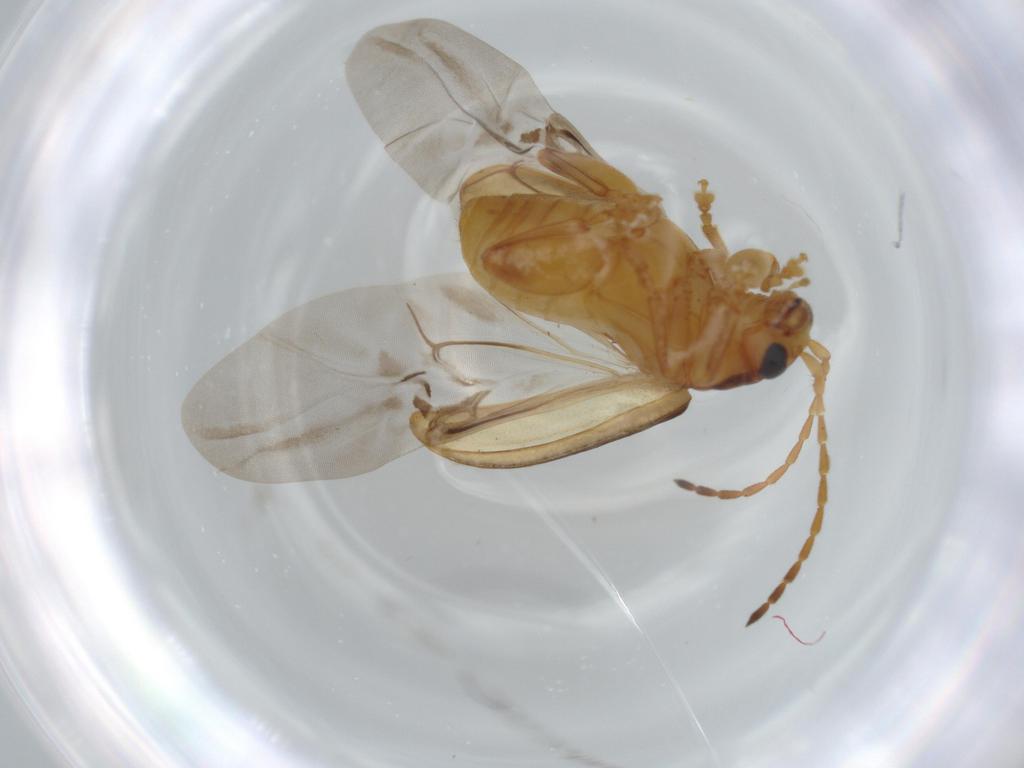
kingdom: Animalia
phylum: Arthropoda
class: Insecta
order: Coleoptera
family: Chrysomelidae
